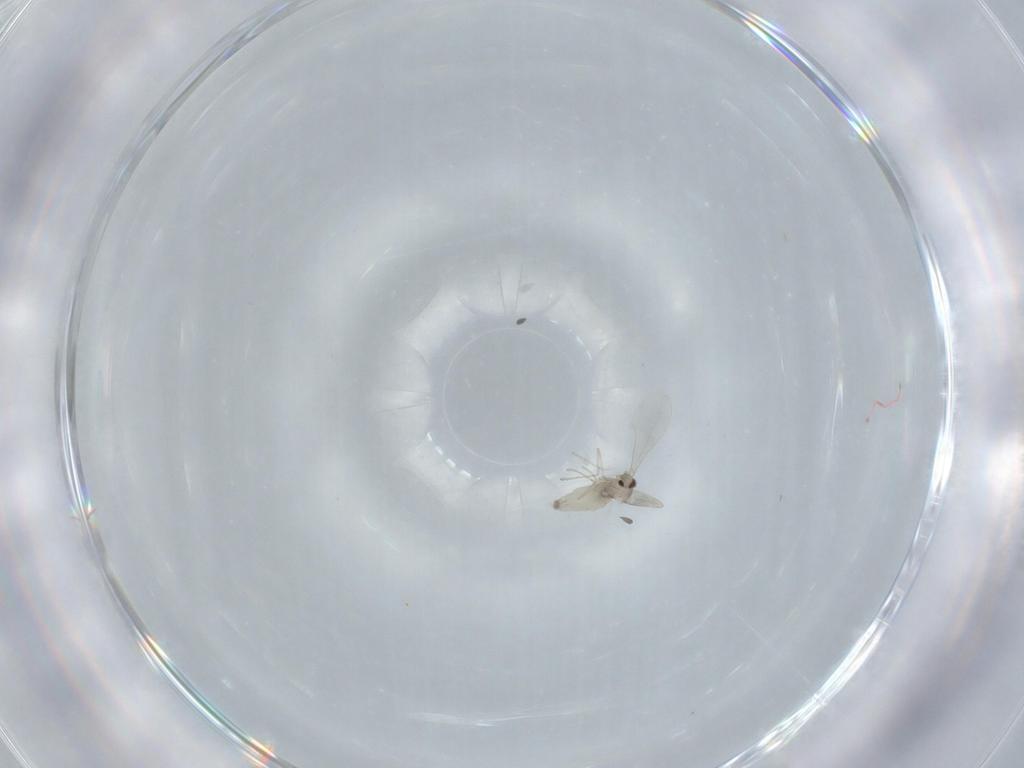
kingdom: Animalia
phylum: Arthropoda
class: Insecta
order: Diptera
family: Cecidomyiidae
